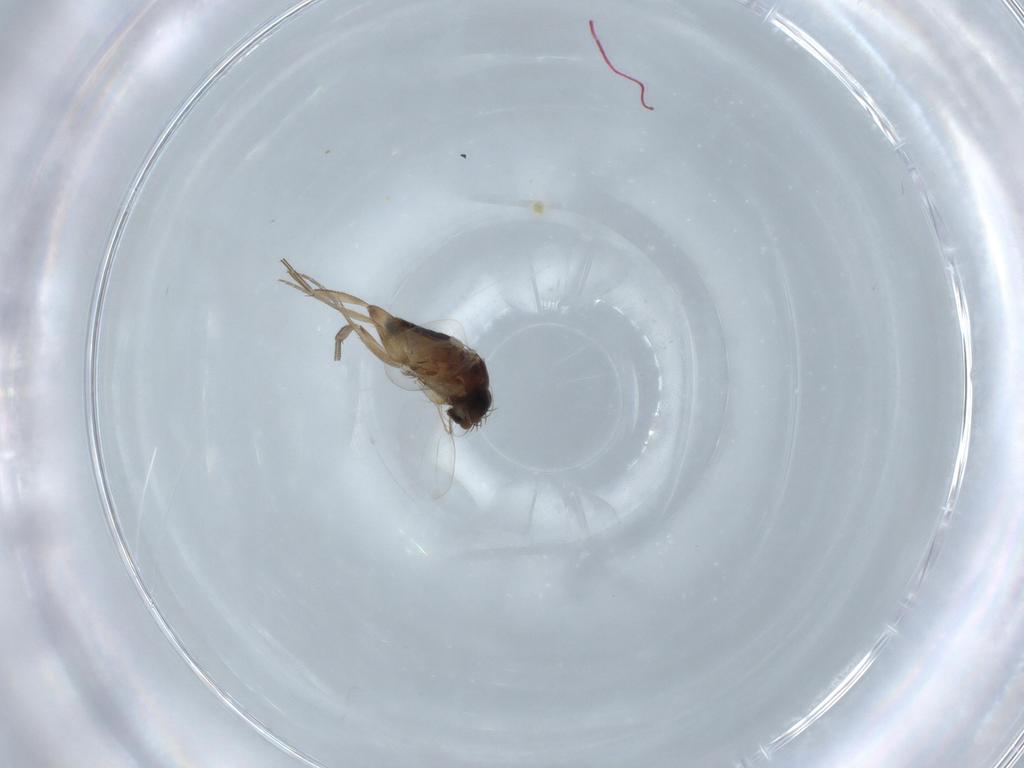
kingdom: Animalia
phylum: Arthropoda
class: Insecta
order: Diptera
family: Phoridae
